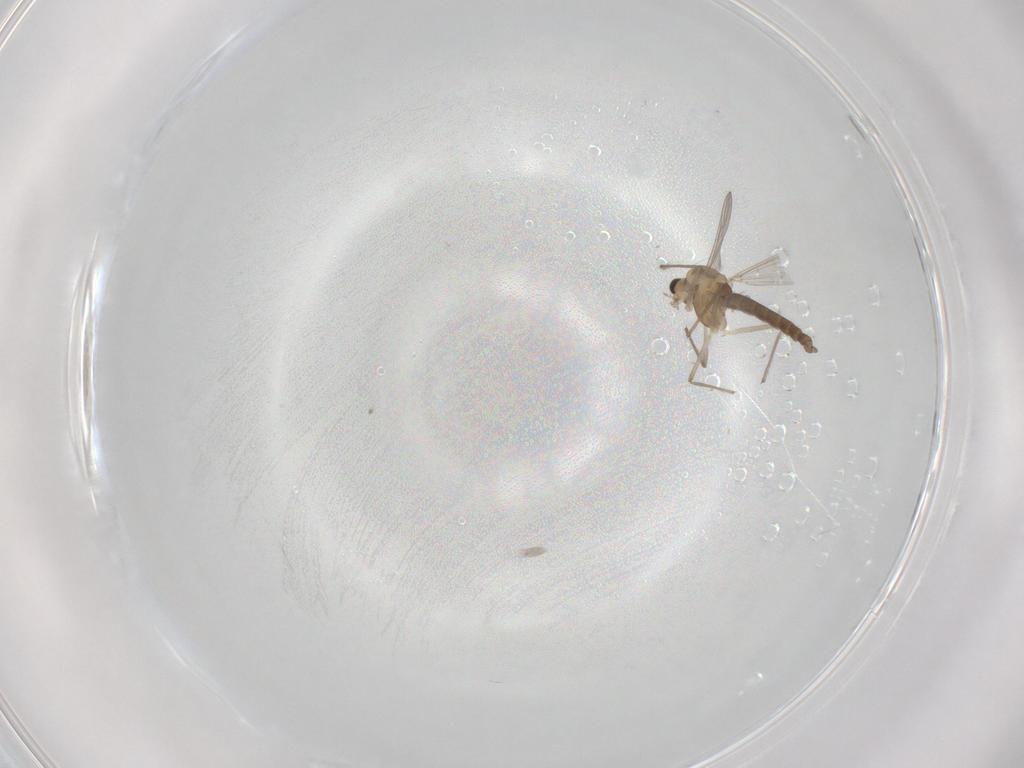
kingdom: Animalia
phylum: Arthropoda
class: Insecta
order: Diptera
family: Chironomidae
